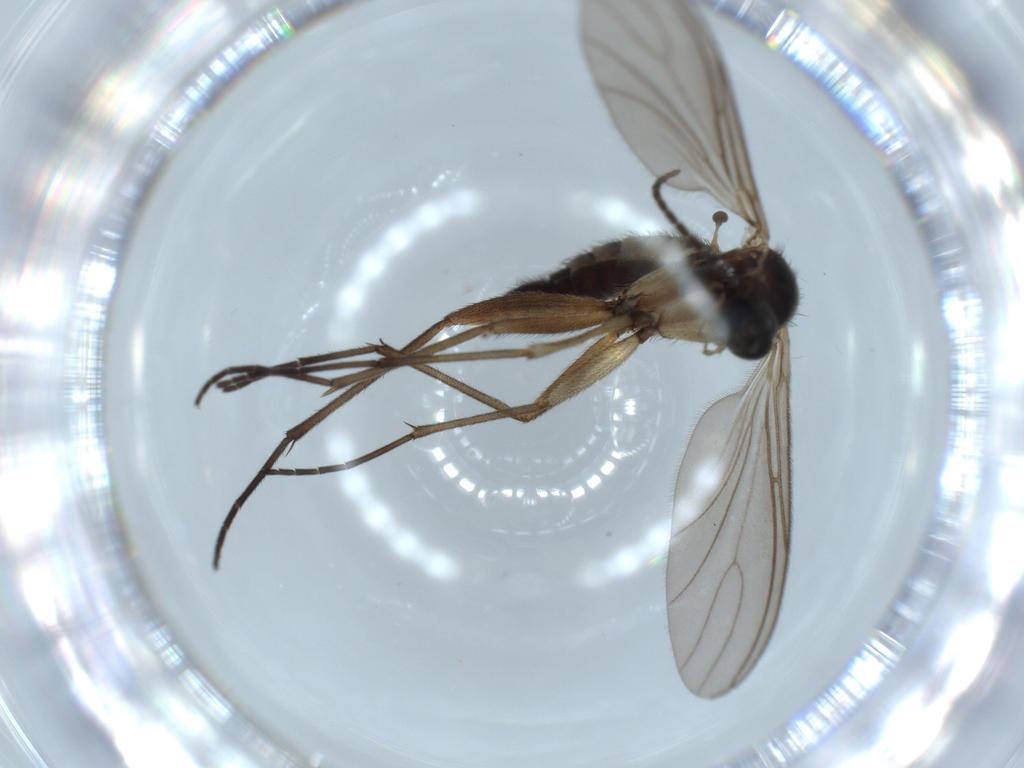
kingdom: Animalia
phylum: Arthropoda
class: Insecta
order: Diptera
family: Sciaridae
